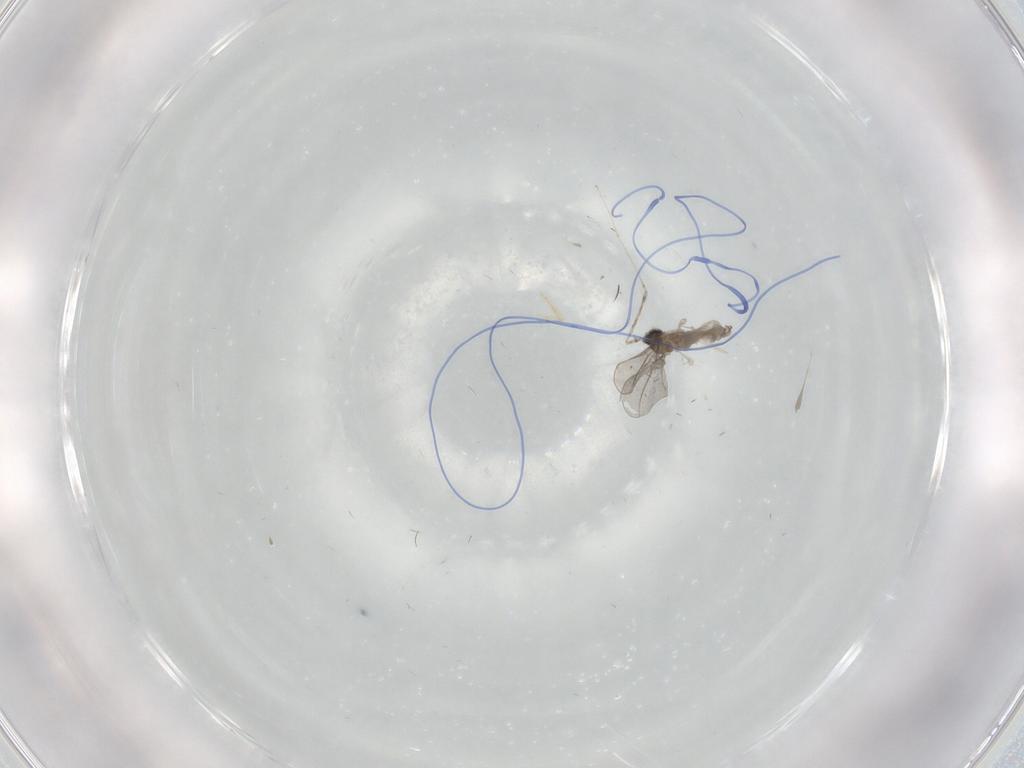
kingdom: Animalia
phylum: Arthropoda
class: Insecta
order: Diptera
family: Cecidomyiidae
